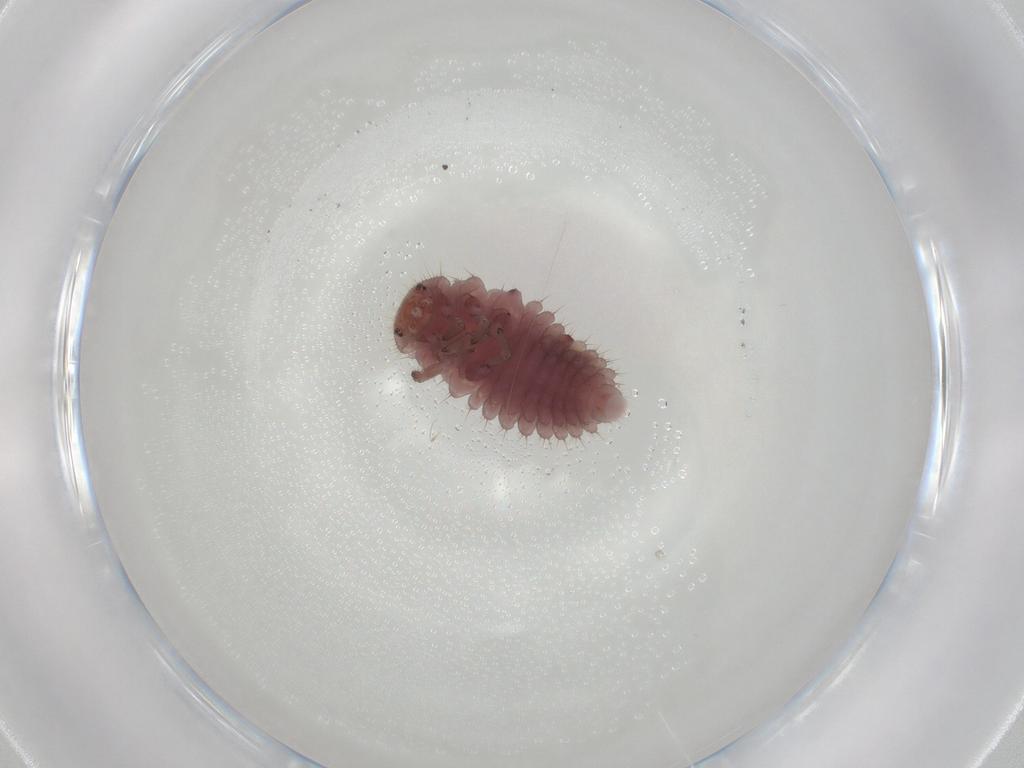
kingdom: Animalia
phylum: Arthropoda
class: Insecta
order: Coleoptera
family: Coccinellidae
